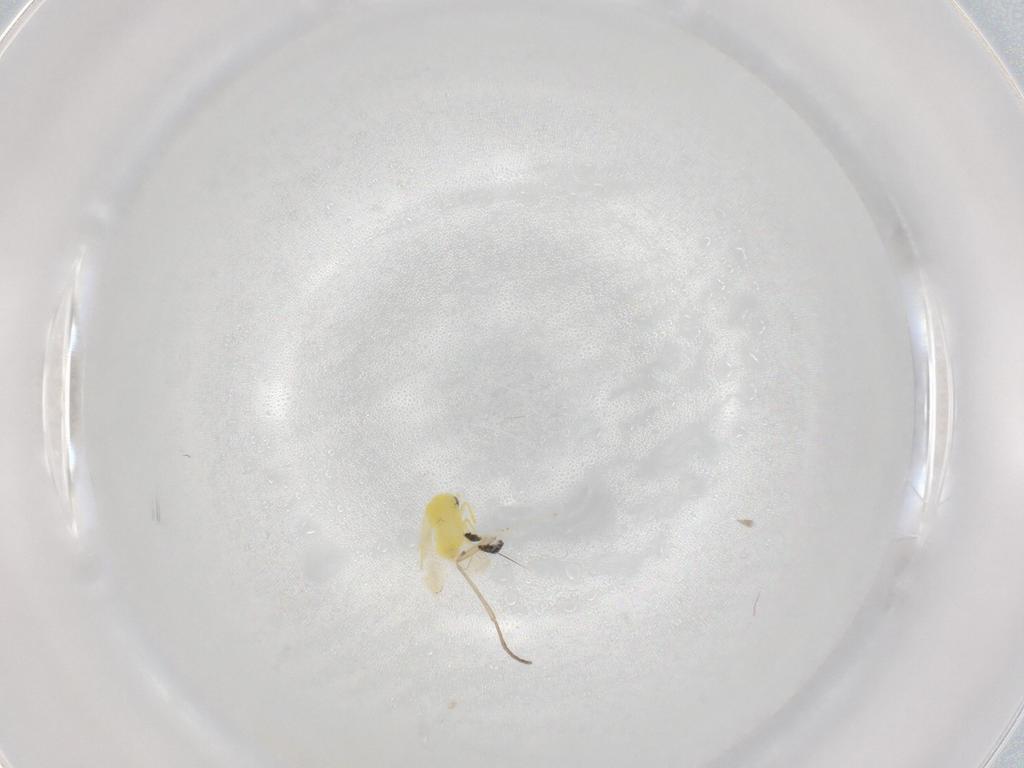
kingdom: Animalia
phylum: Arthropoda
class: Insecta
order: Hemiptera
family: Aleyrodidae
